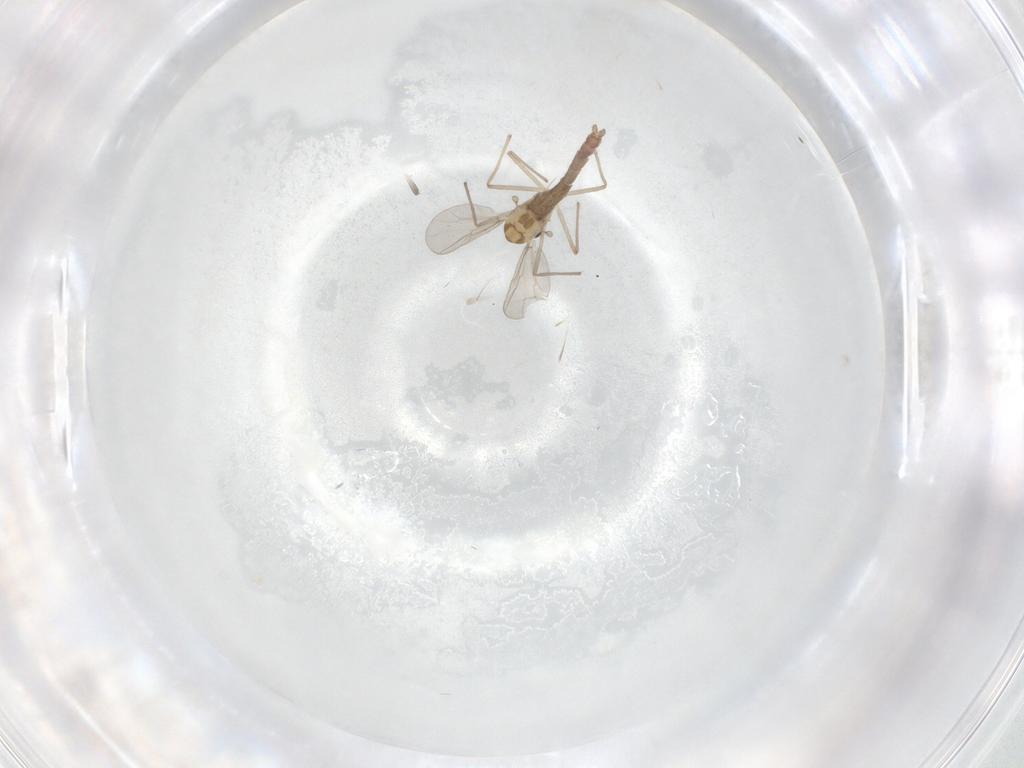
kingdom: Animalia
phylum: Arthropoda
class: Insecta
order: Diptera
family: Chironomidae
